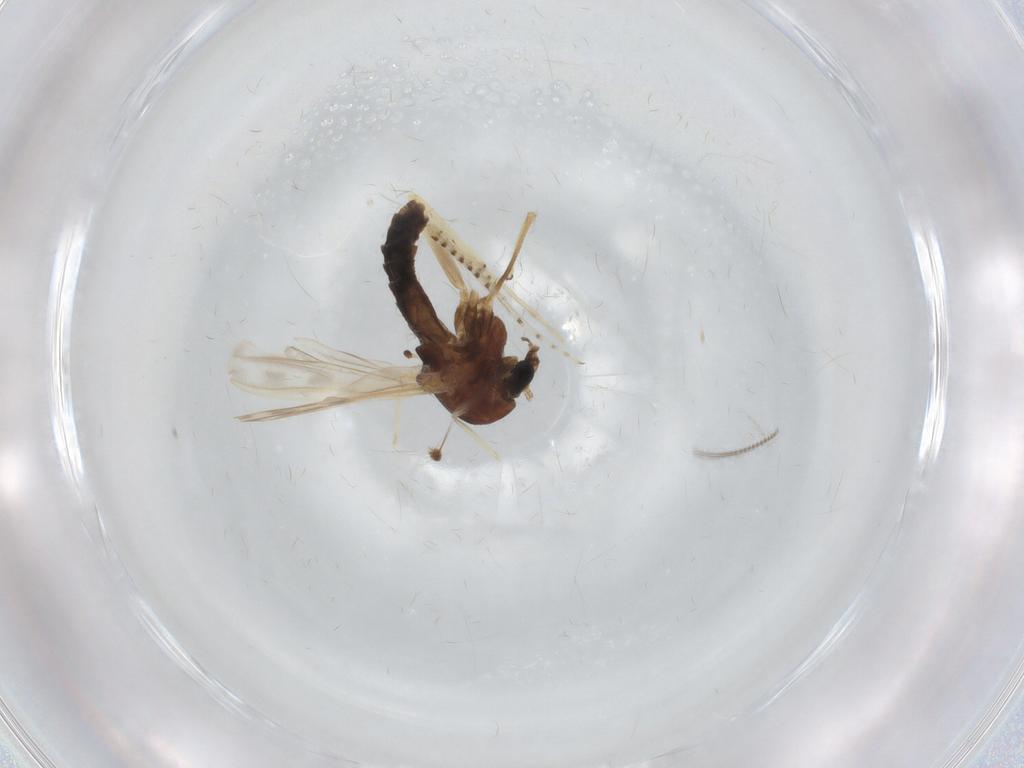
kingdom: Animalia
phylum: Arthropoda
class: Insecta
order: Diptera
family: Chaoboridae
